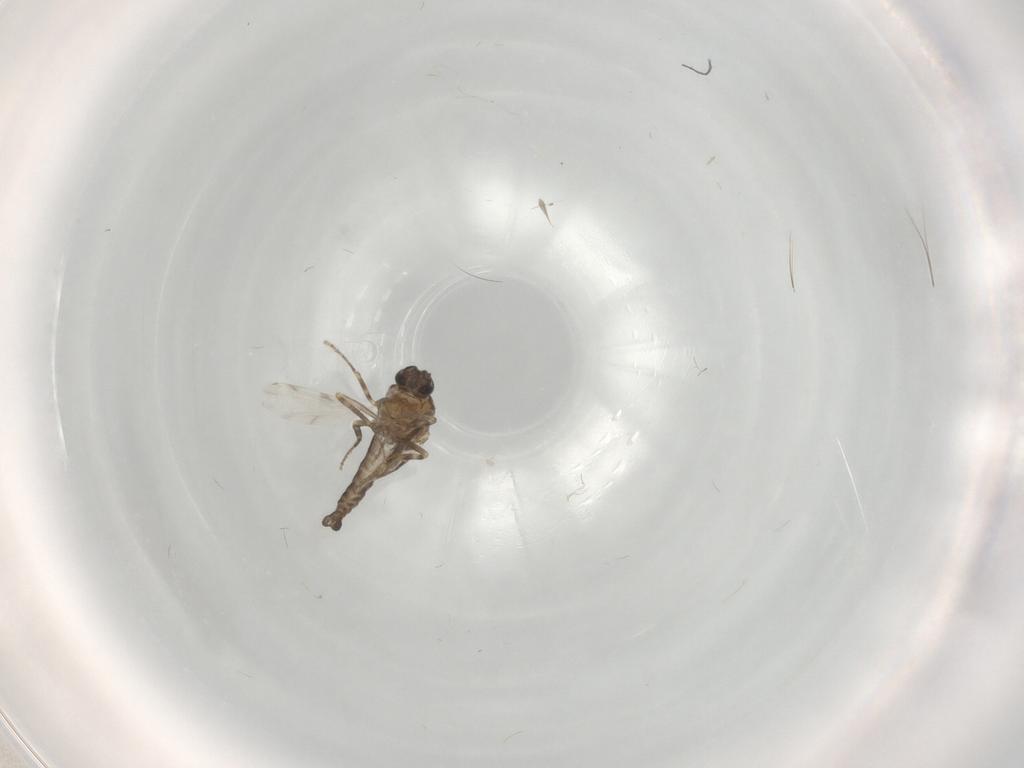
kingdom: Animalia
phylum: Arthropoda
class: Insecta
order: Diptera
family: Ceratopogonidae
